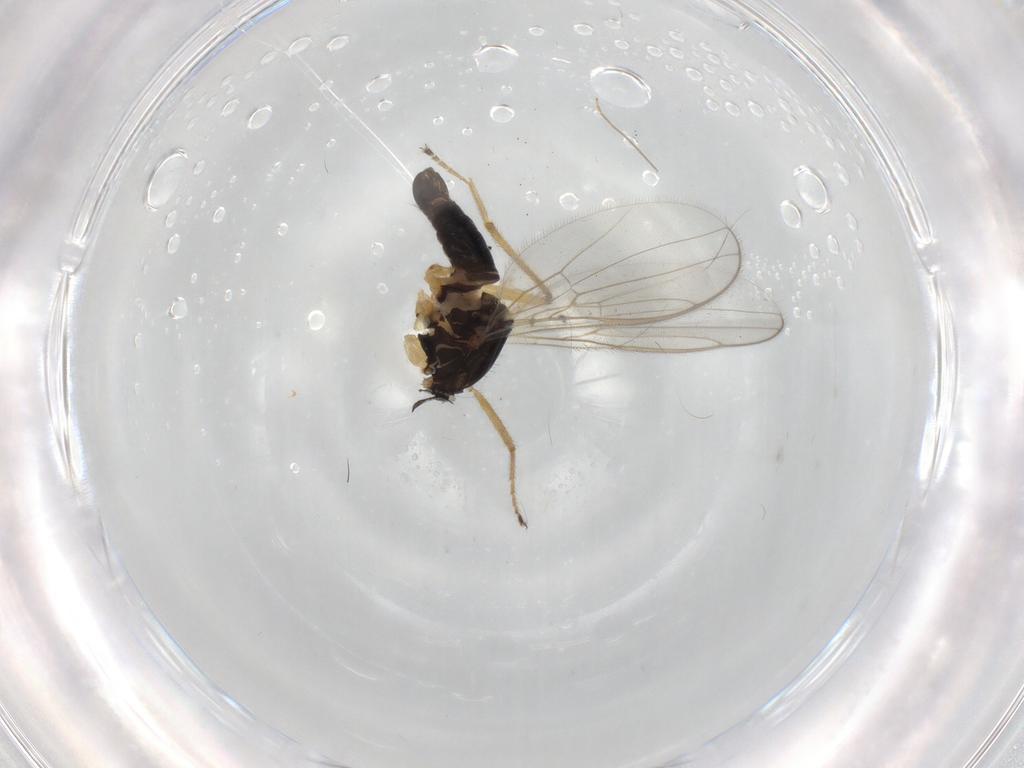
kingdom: Animalia
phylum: Arthropoda
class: Insecta
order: Diptera
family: Hybotidae
